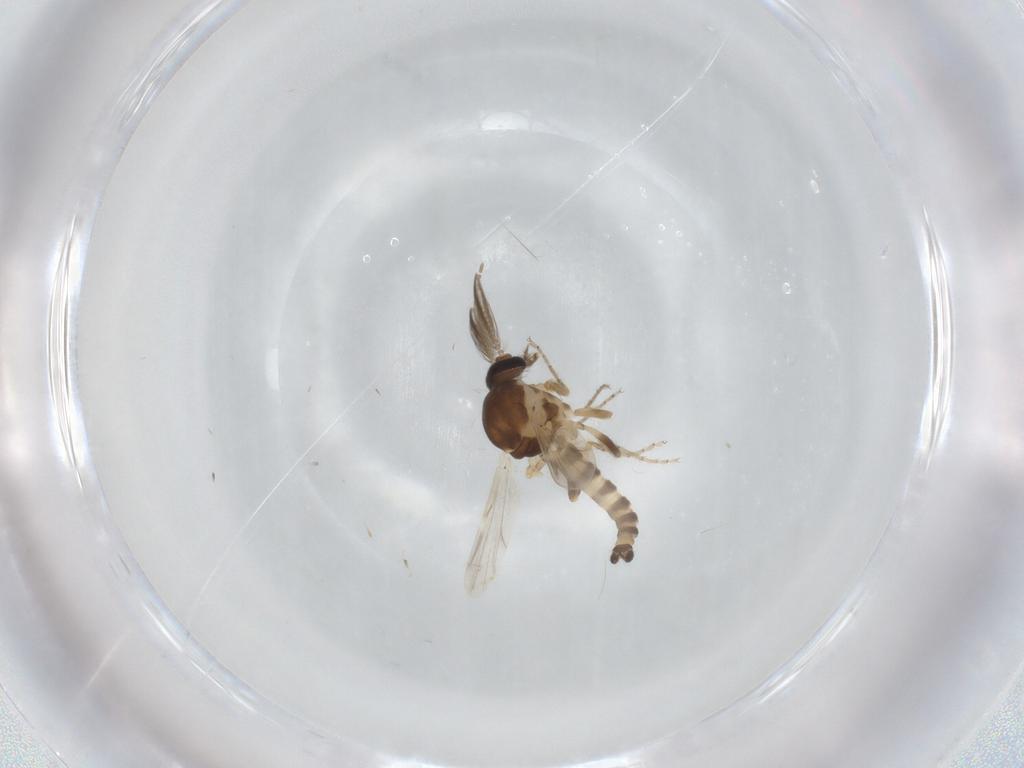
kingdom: Animalia
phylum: Arthropoda
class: Insecta
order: Diptera
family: Ceratopogonidae
